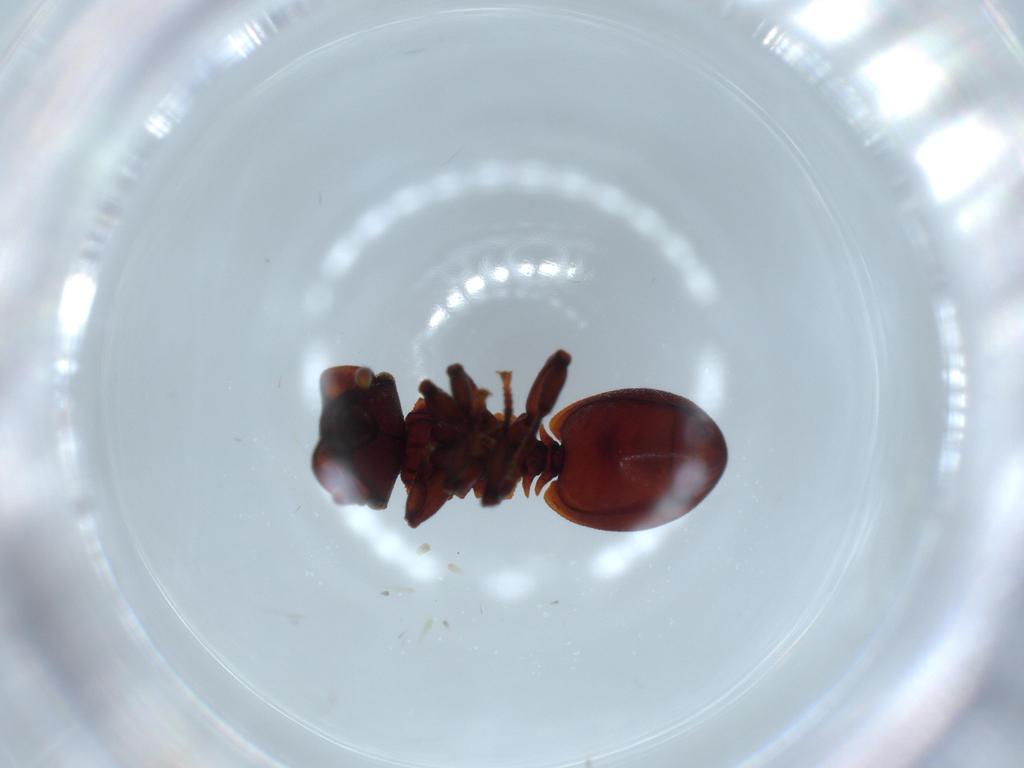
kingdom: Animalia
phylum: Arthropoda
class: Insecta
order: Hymenoptera
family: Formicidae
